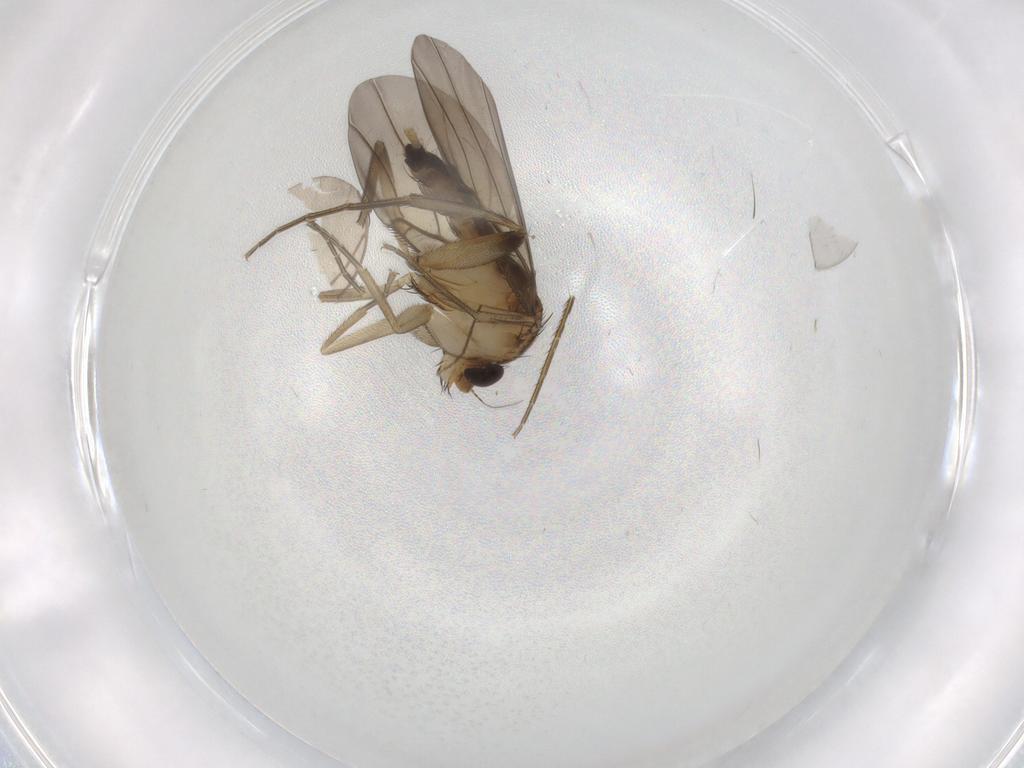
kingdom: Animalia
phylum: Arthropoda
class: Insecta
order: Diptera
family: Phoridae
